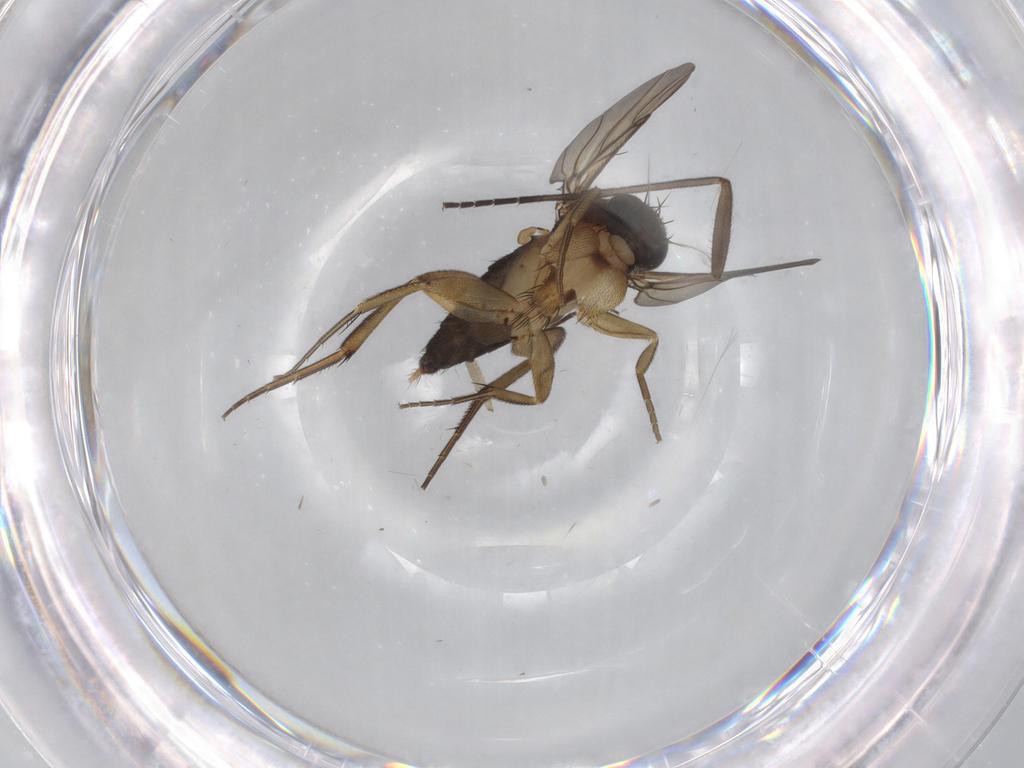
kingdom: Animalia
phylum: Arthropoda
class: Insecta
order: Diptera
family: Phoridae
